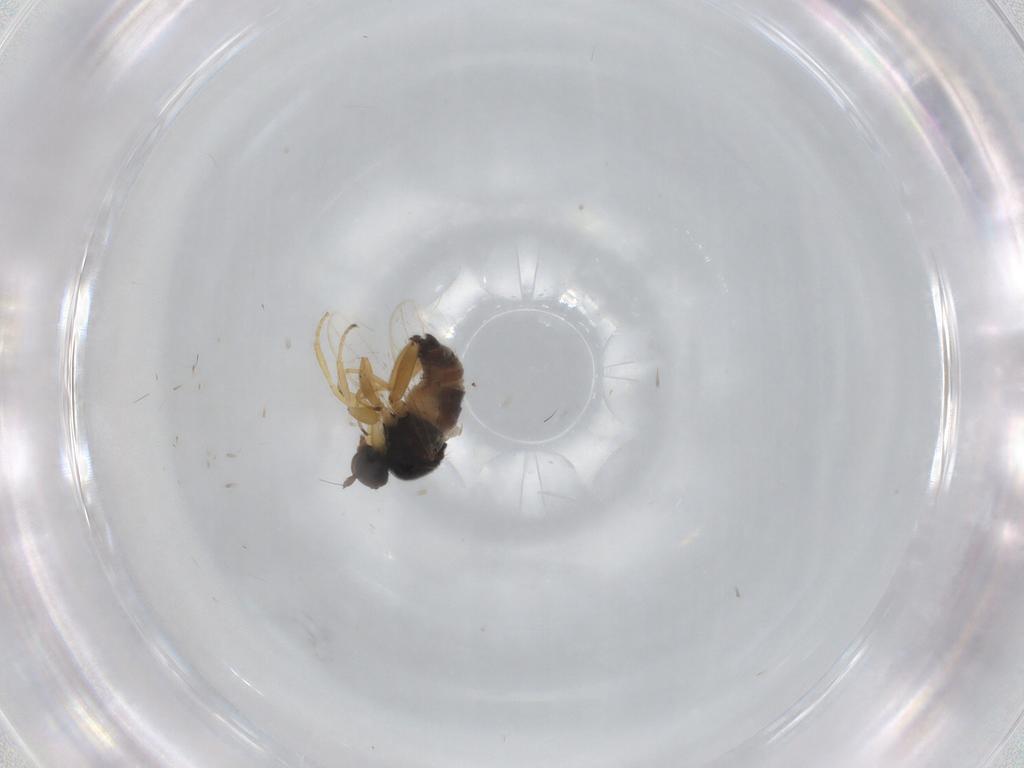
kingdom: Animalia
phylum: Arthropoda
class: Insecta
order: Diptera
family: Hybotidae
